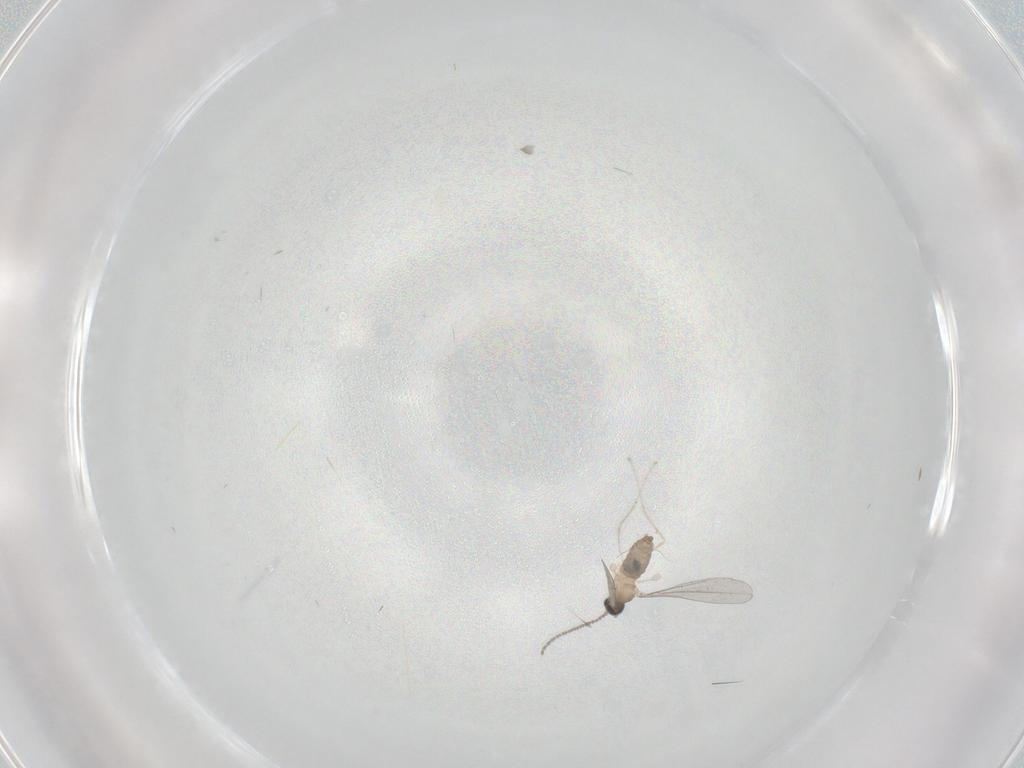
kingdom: Animalia
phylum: Arthropoda
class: Insecta
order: Diptera
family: Cecidomyiidae
